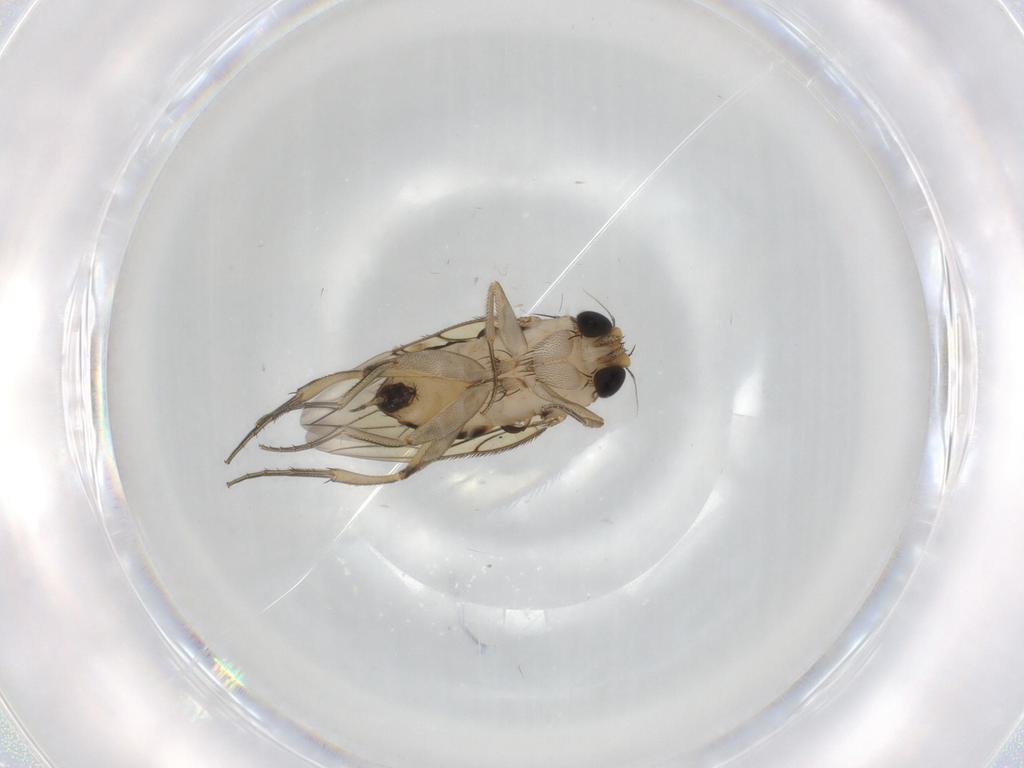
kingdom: Animalia
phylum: Arthropoda
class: Insecta
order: Diptera
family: Phoridae
